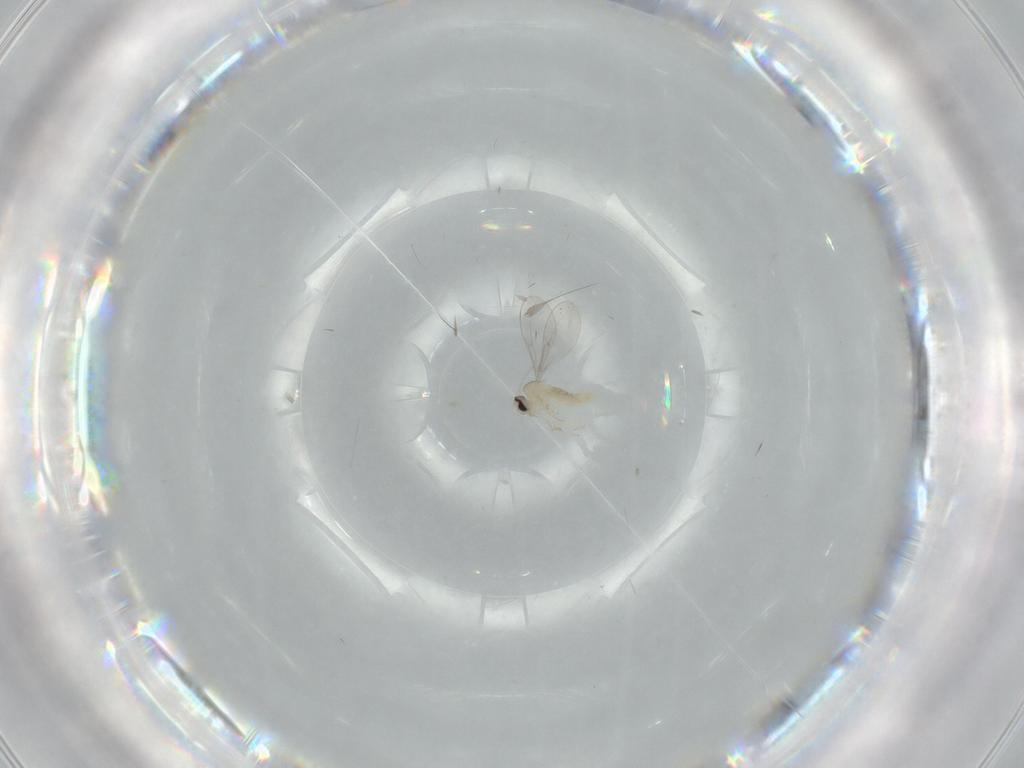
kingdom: Animalia
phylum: Arthropoda
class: Insecta
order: Diptera
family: Cecidomyiidae
